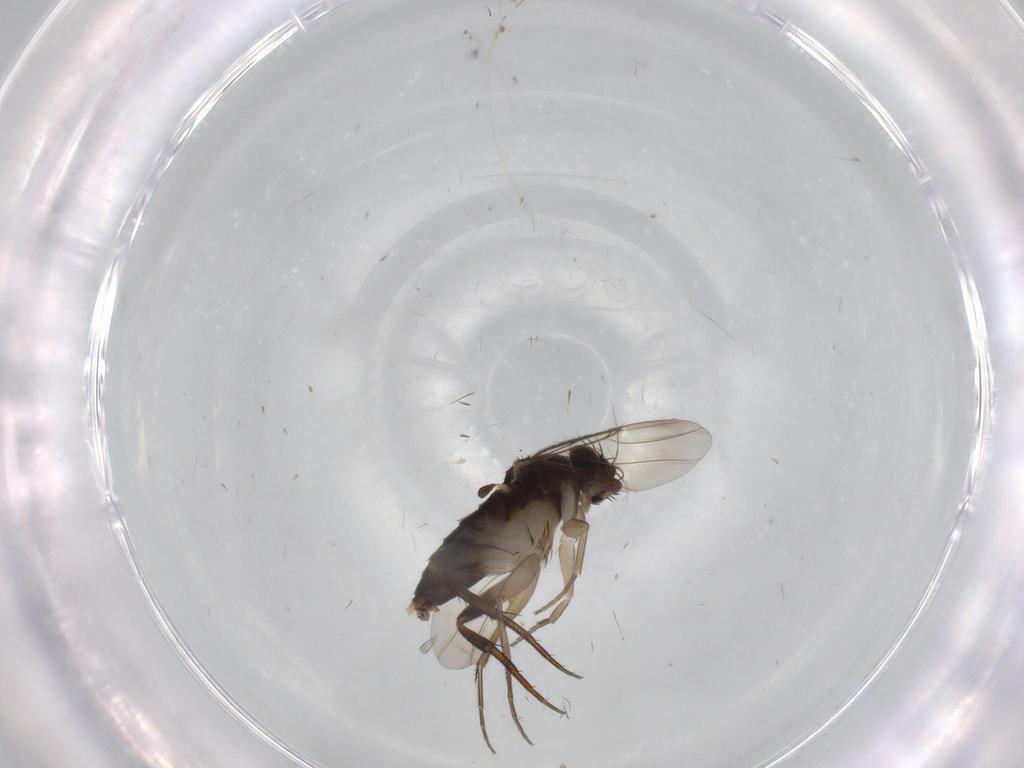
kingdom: Animalia
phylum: Arthropoda
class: Insecta
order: Diptera
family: Phoridae
